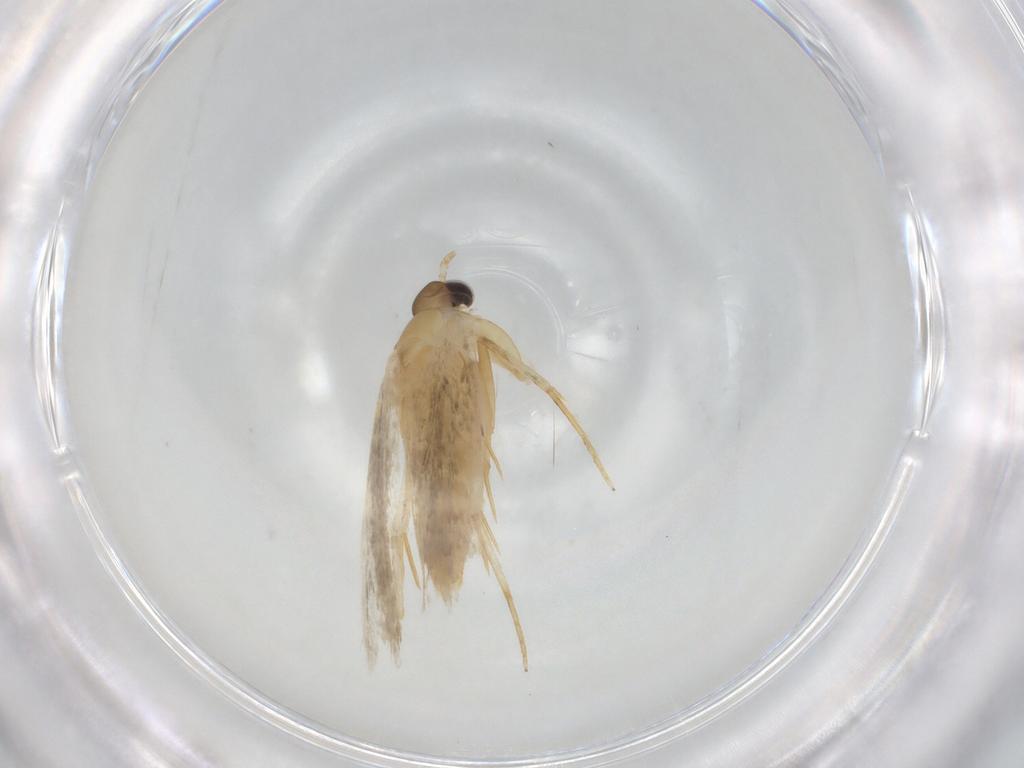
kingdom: Animalia
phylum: Arthropoda
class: Insecta
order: Lepidoptera
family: Autostichidae
